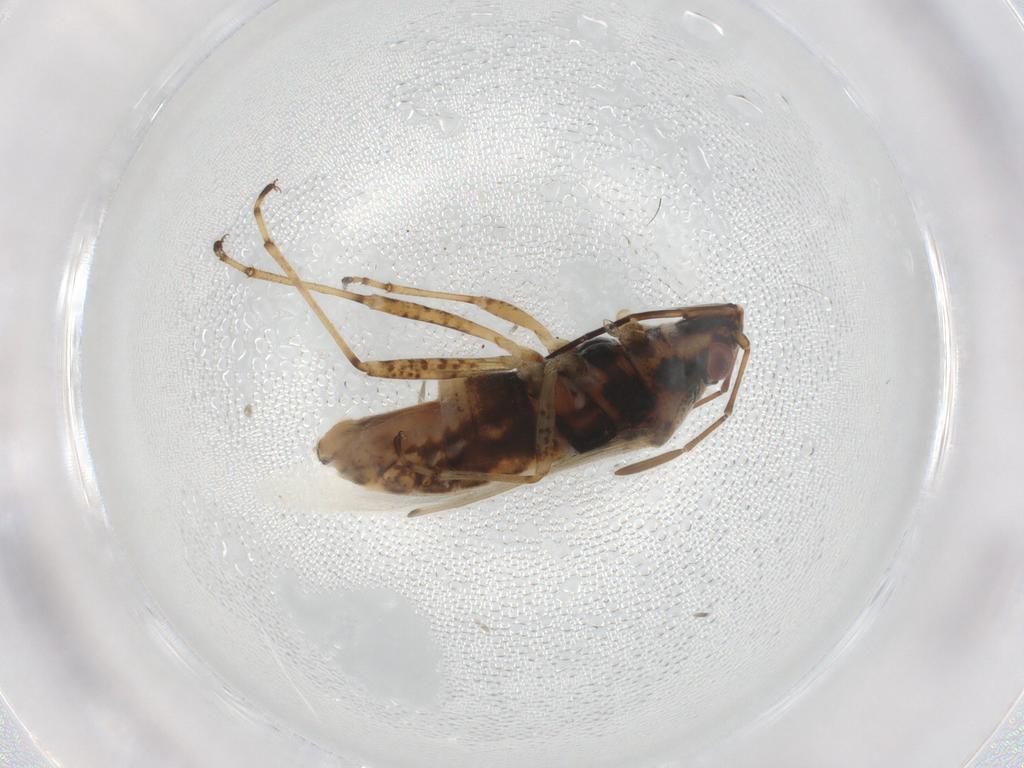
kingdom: Animalia
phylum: Arthropoda
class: Insecta
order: Hemiptera
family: Lygaeidae
